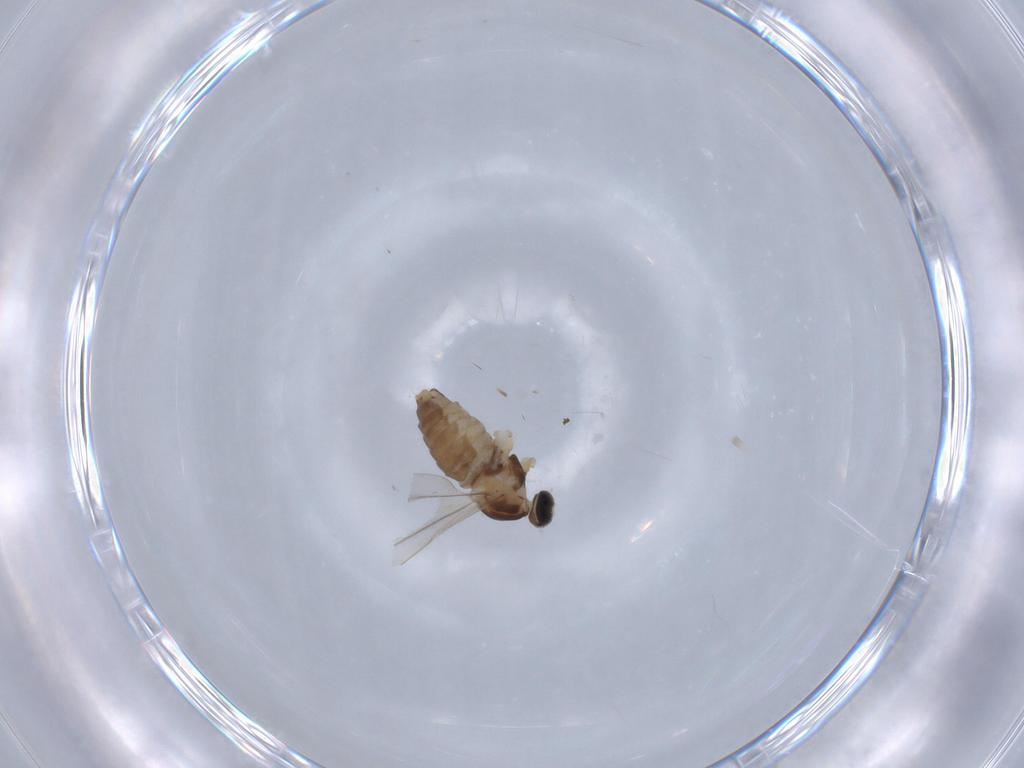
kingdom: Animalia
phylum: Arthropoda
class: Insecta
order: Diptera
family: Cecidomyiidae
